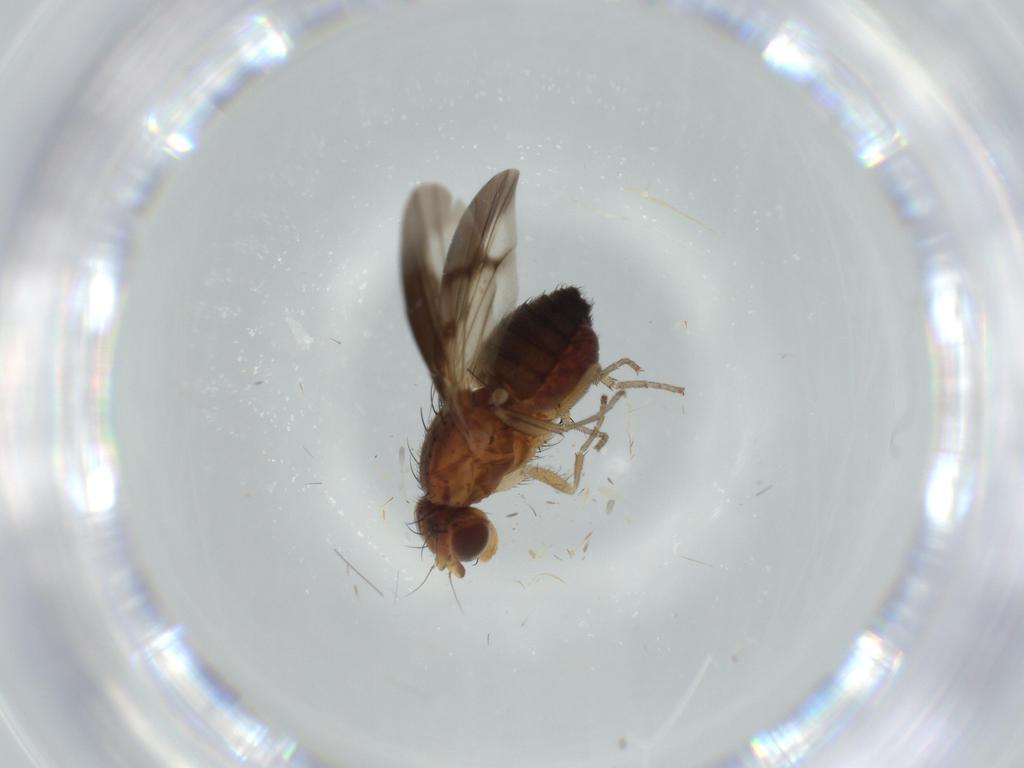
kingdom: Animalia
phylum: Arthropoda
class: Insecta
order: Diptera
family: Heleomyzidae
